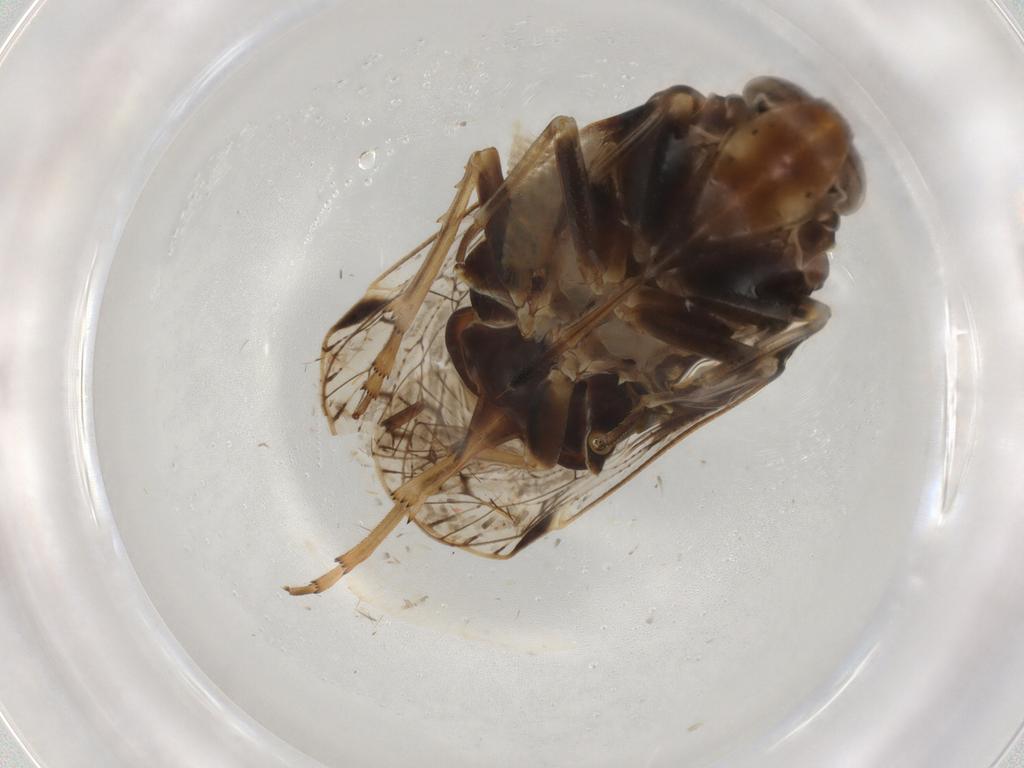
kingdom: Animalia
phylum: Arthropoda
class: Insecta
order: Hemiptera
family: Cixiidae
